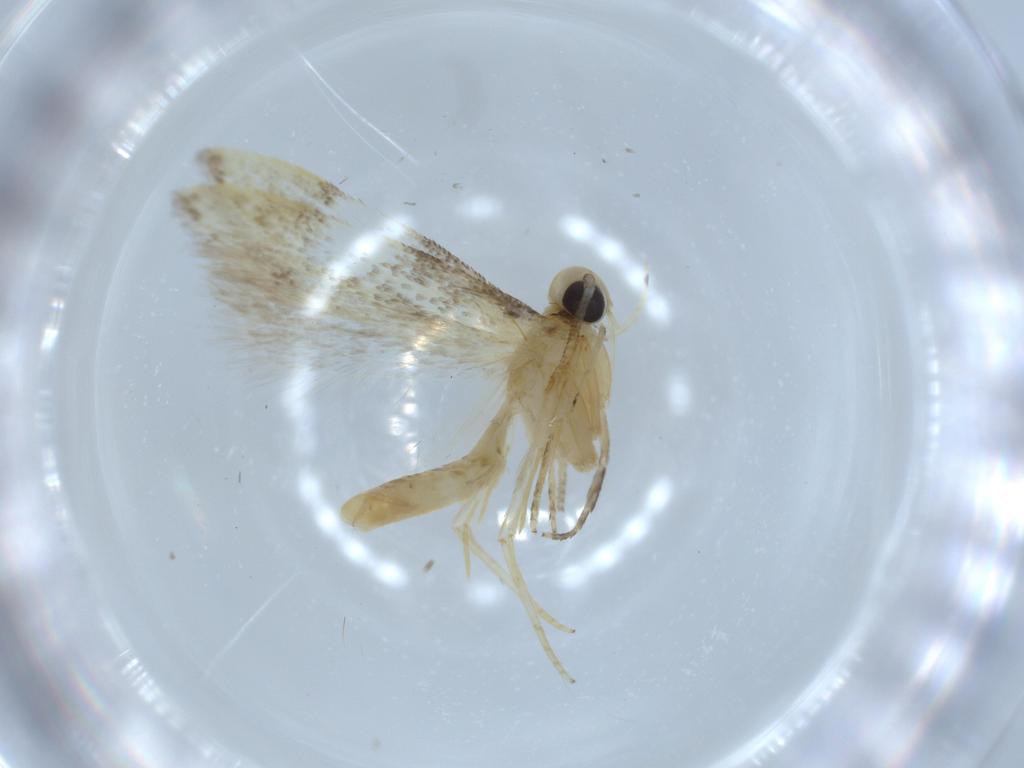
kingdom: Animalia
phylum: Arthropoda
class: Insecta
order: Lepidoptera
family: Autostichidae
